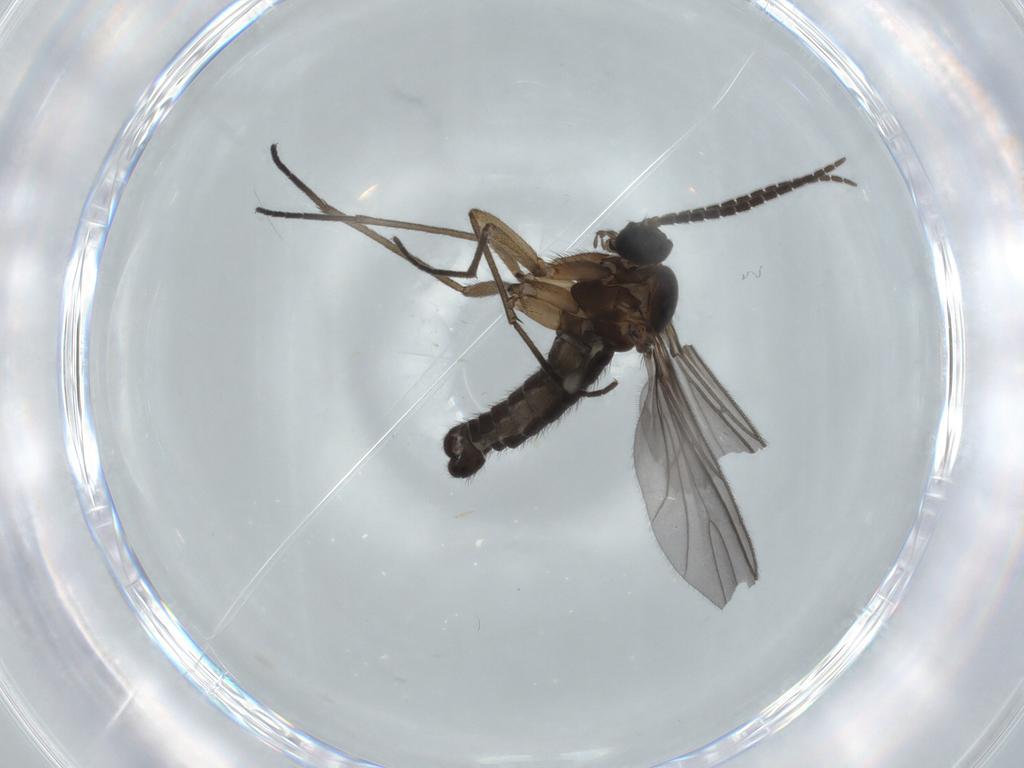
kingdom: Animalia
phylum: Arthropoda
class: Insecta
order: Diptera
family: Sciaridae
